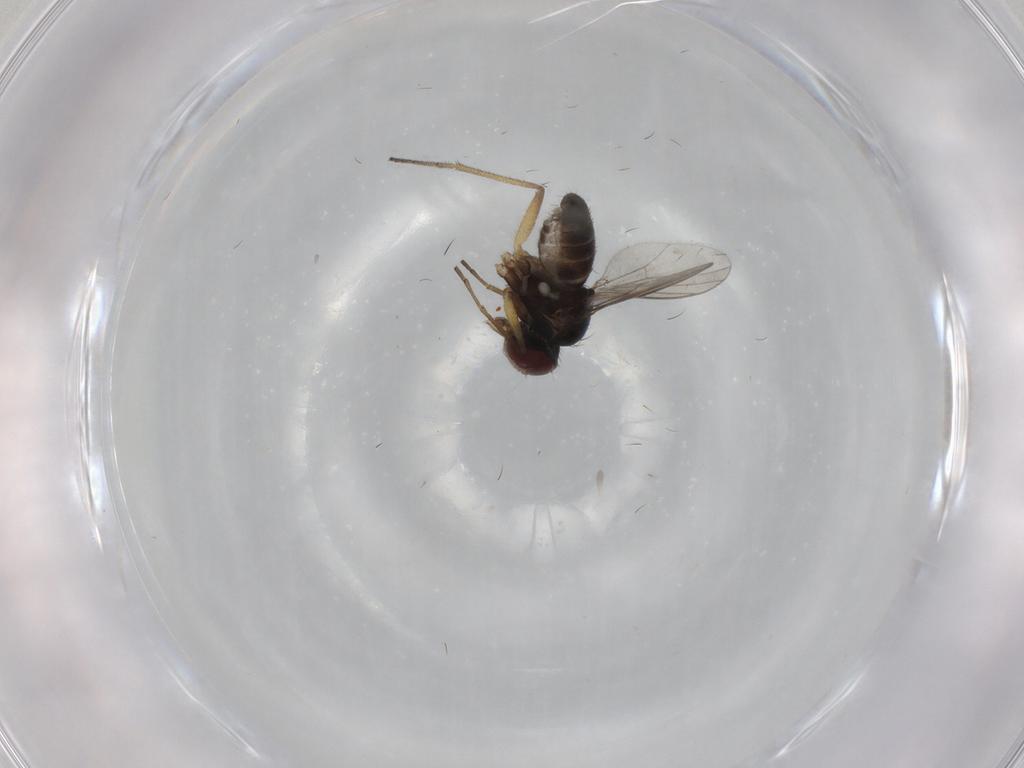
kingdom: Animalia
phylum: Arthropoda
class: Insecta
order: Diptera
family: Dolichopodidae
